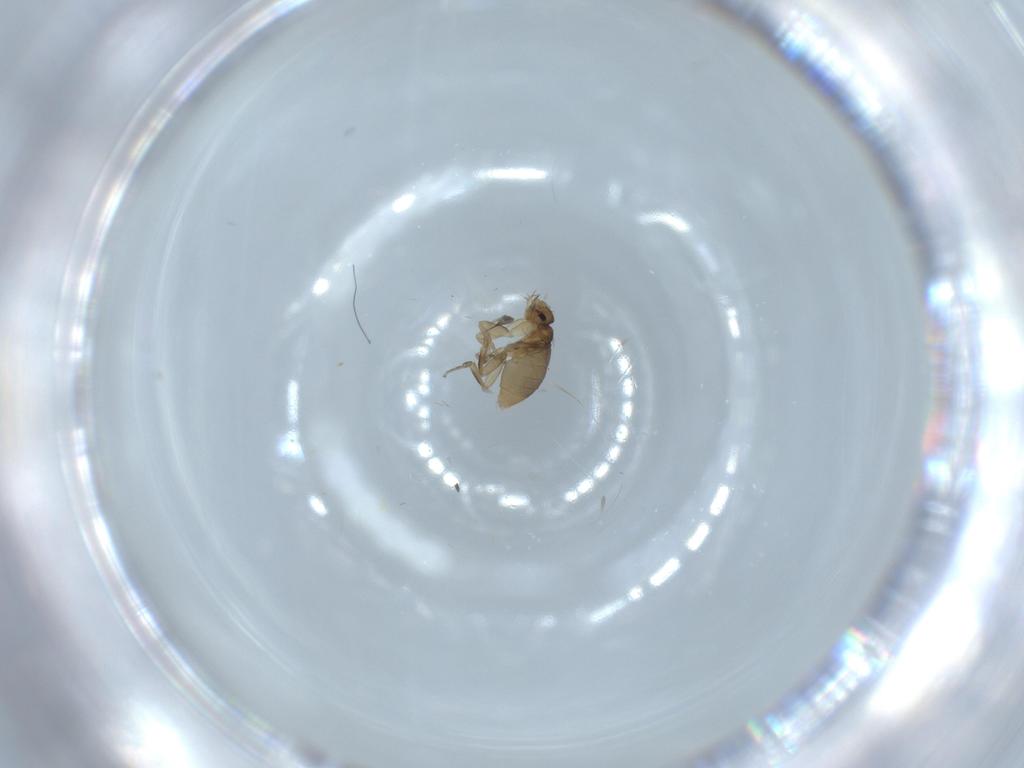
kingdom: Animalia
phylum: Arthropoda
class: Insecta
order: Diptera
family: Phoridae
